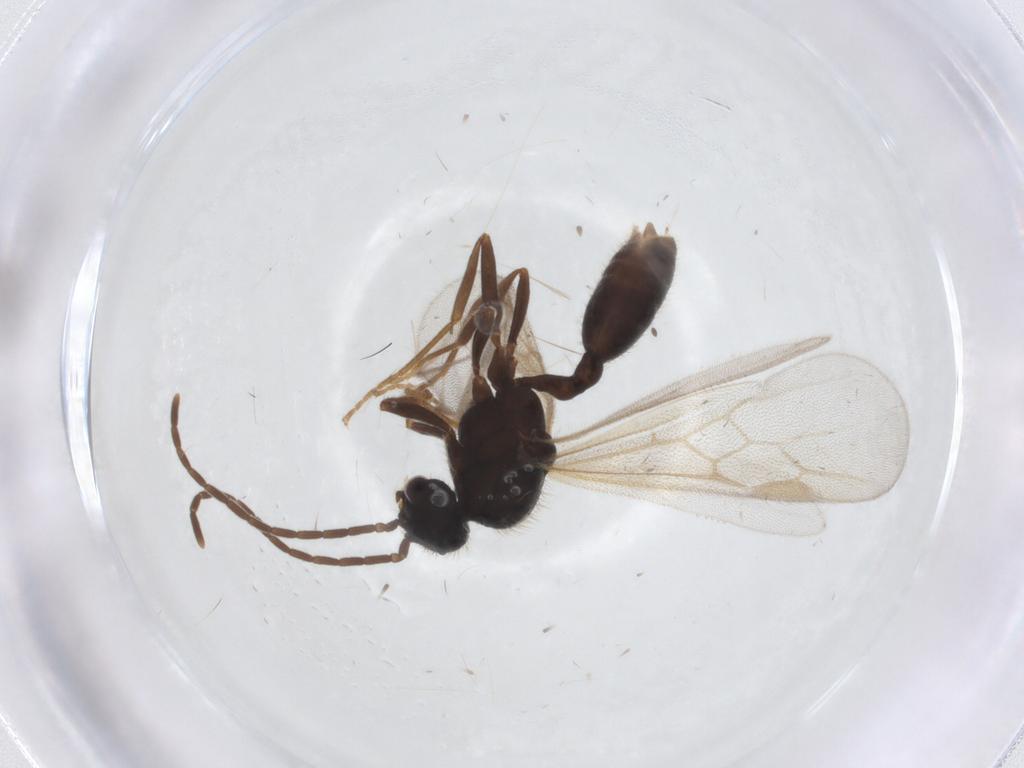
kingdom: Animalia
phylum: Arthropoda
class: Insecta
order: Hymenoptera
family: Formicidae
